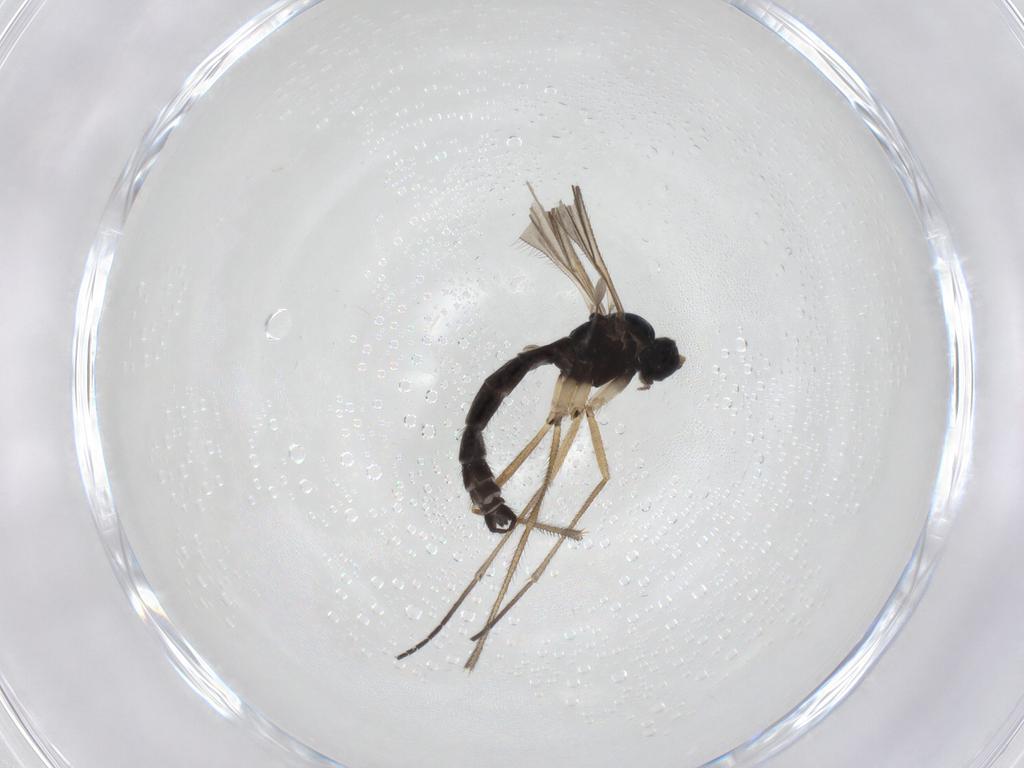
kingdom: Animalia
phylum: Arthropoda
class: Insecta
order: Diptera
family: Sciaridae
